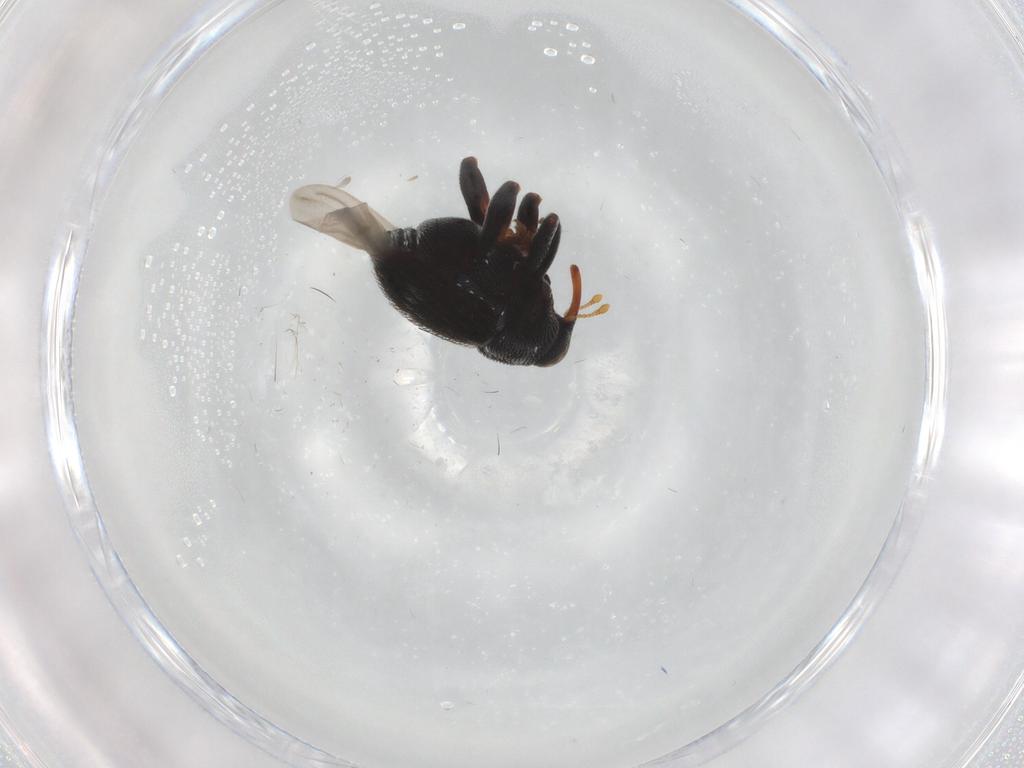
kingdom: Animalia
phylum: Arthropoda
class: Insecta
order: Coleoptera
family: Curculionidae
